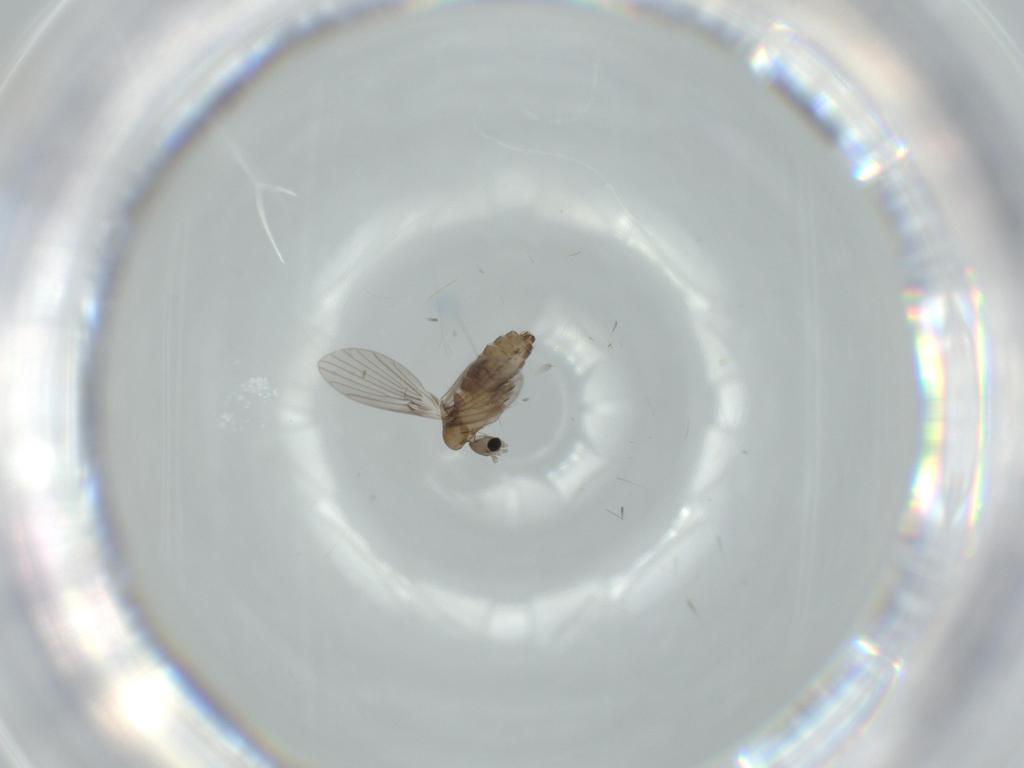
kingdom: Animalia
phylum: Arthropoda
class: Insecta
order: Diptera
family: Psychodidae
